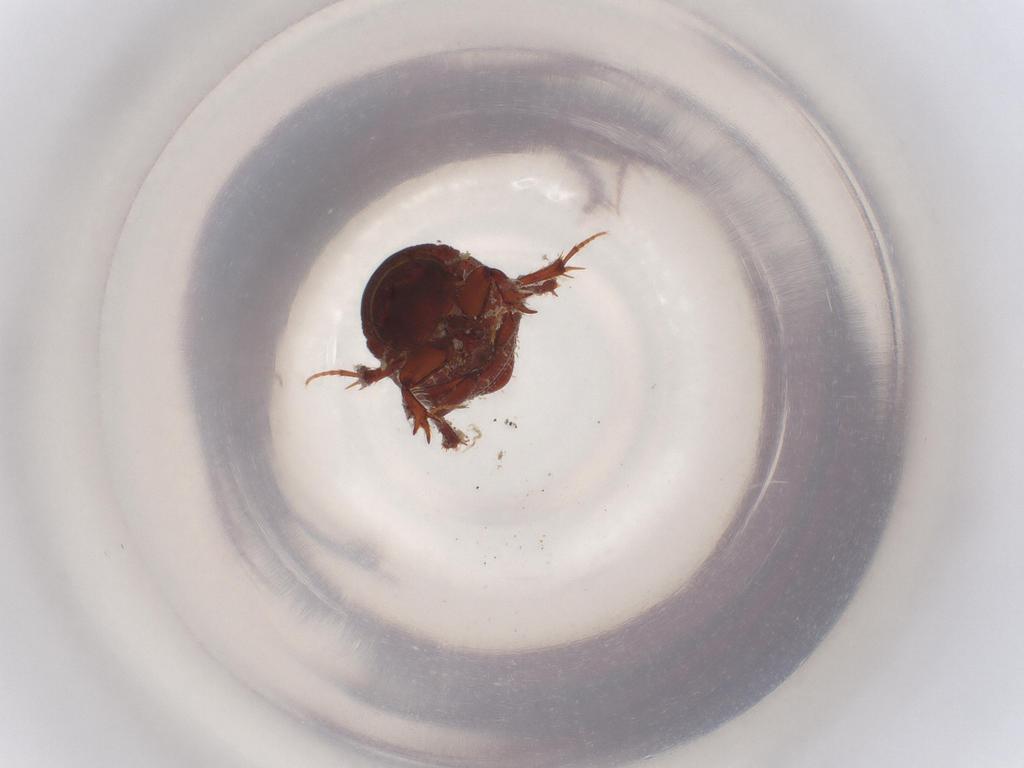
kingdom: Animalia
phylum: Arthropoda
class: Insecta
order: Coleoptera
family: Scarabaeidae
